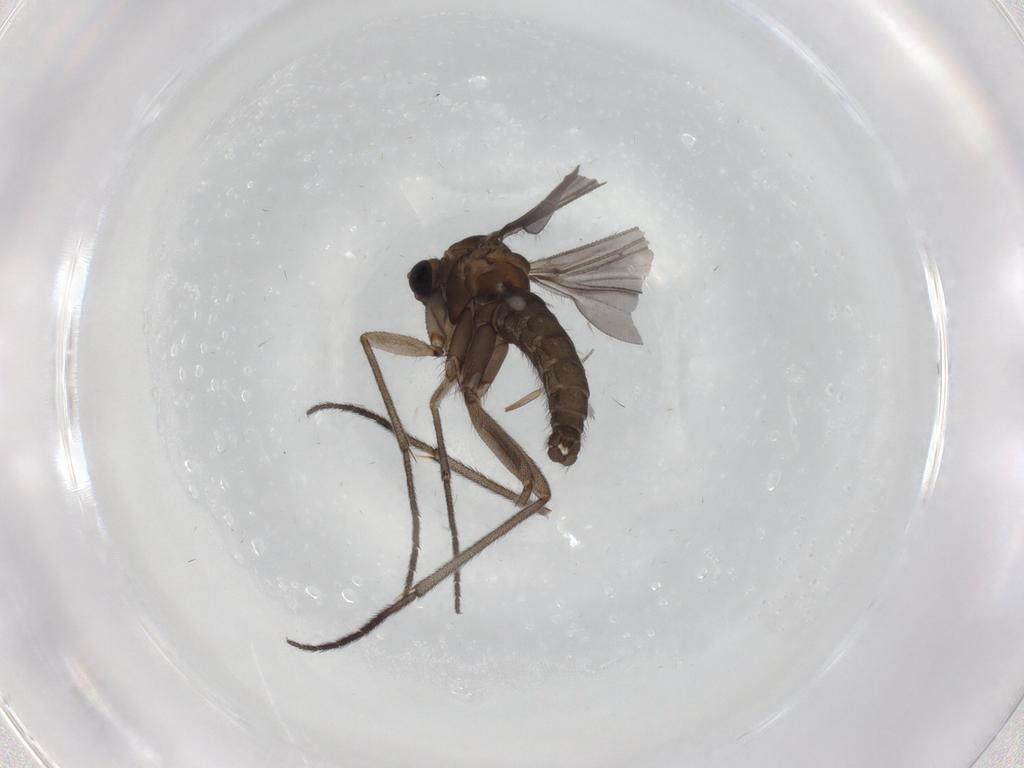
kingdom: Animalia
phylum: Arthropoda
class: Insecta
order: Diptera
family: Sciaridae
